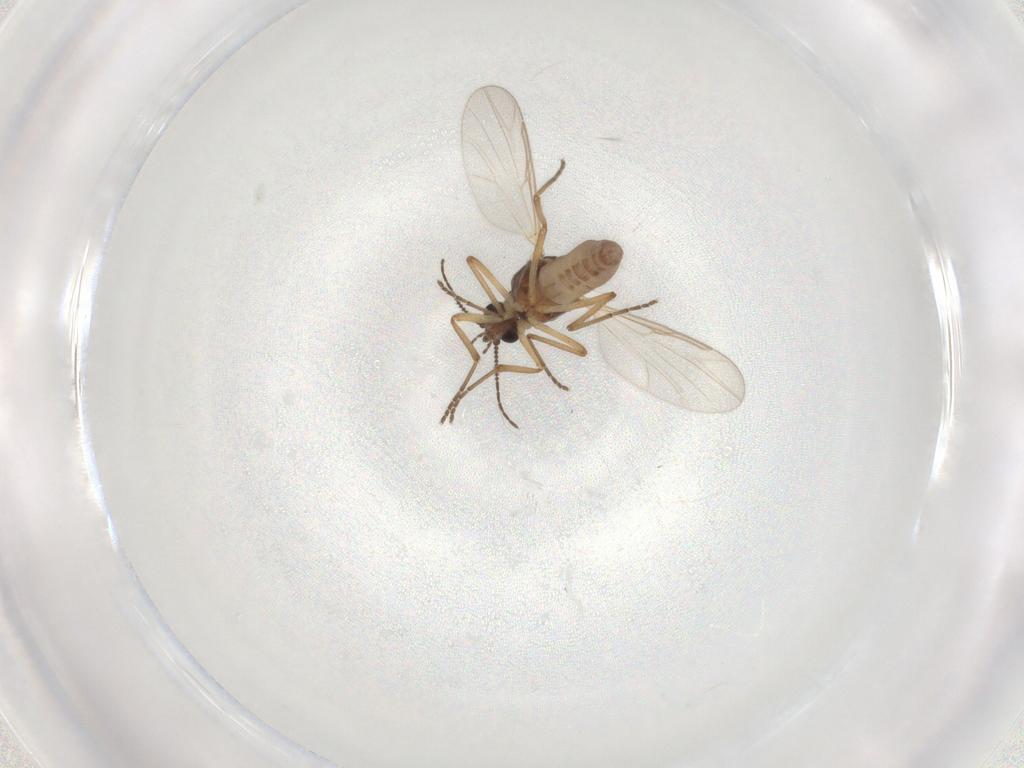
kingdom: Animalia
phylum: Arthropoda
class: Insecta
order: Diptera
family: Ceratopogonidae
